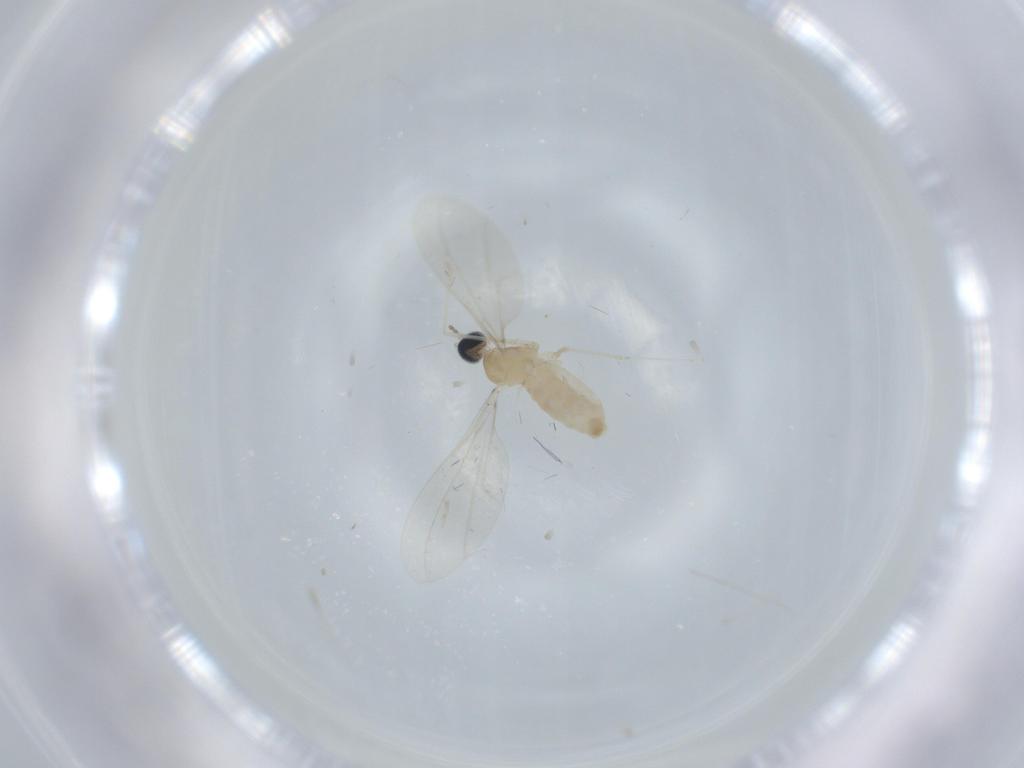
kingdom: Animalia
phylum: Arthropoda
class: Insecta
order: Diptera
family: Cecidomyiidae
